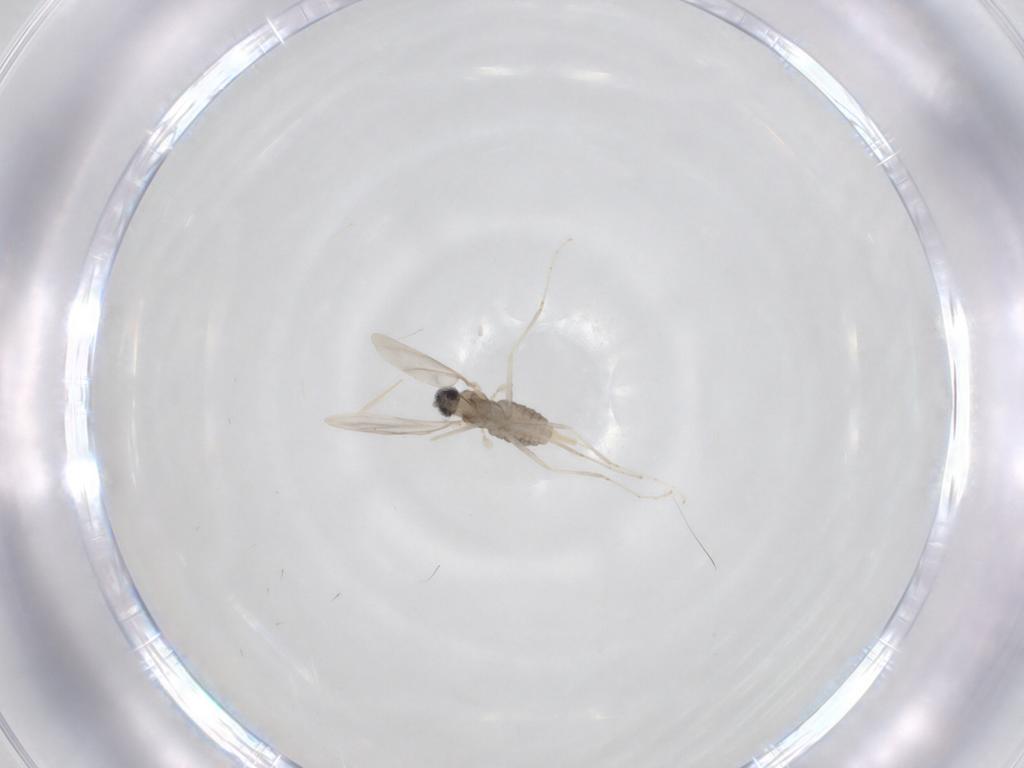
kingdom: Animalia
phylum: Arthropoda
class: Insecta
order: Diptera
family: Cecidomyiidae
